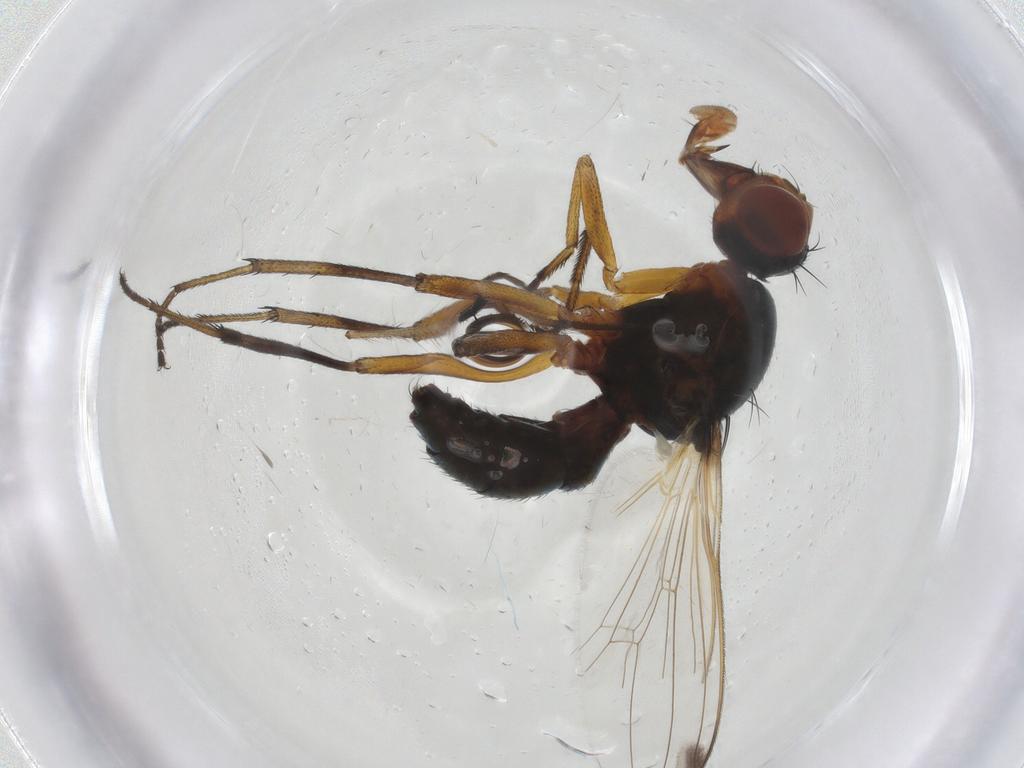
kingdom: Animalia
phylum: Arthropoda
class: Insecta
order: Diptera
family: Sepsidae
